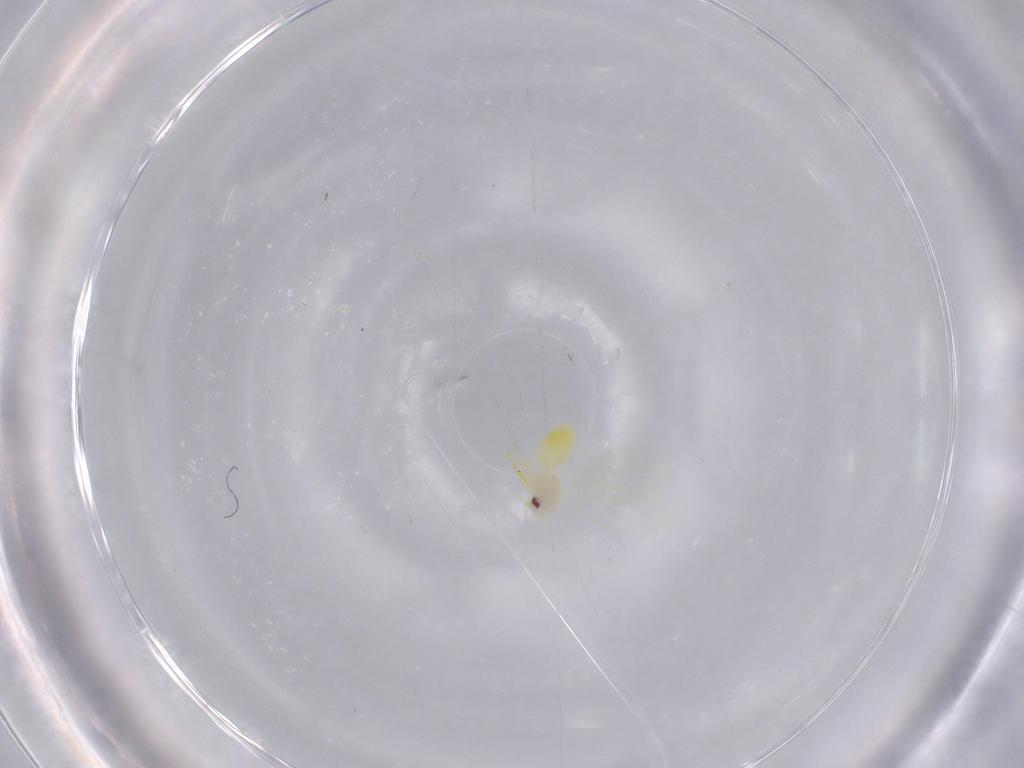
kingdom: Animalia
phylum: Arthropoda
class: Insecta
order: Hemiptera
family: Aleyrodidae
